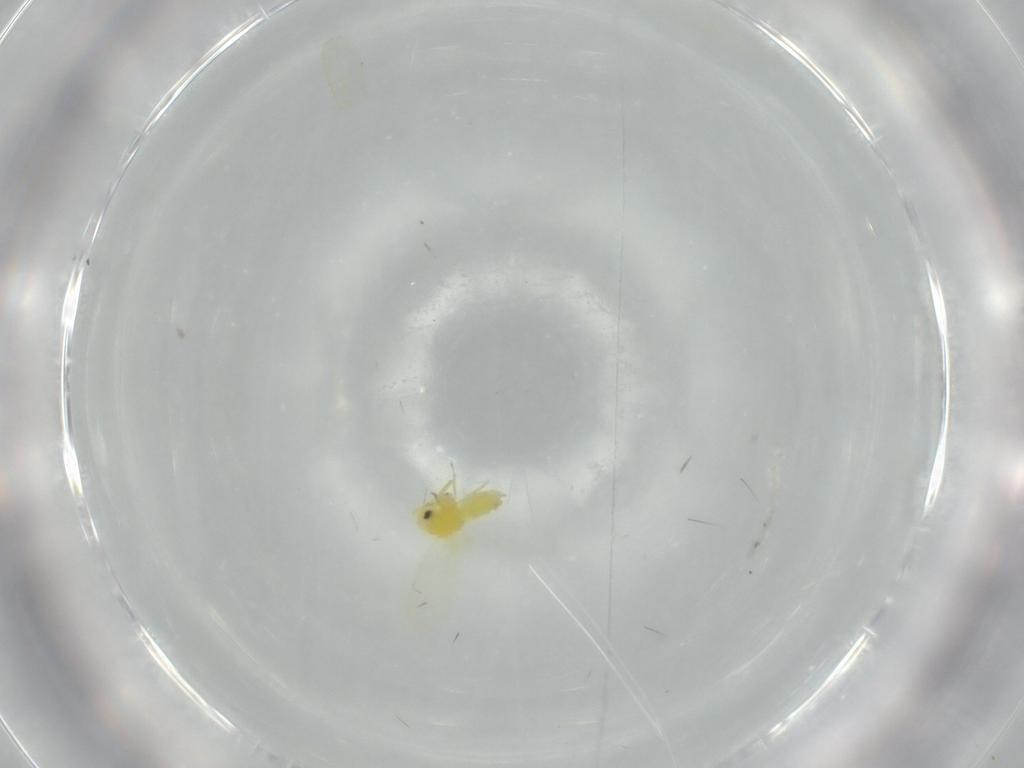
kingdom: Animalia
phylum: Arthropoda
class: Insecta
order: Hemiptera
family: Aleyrodidae
